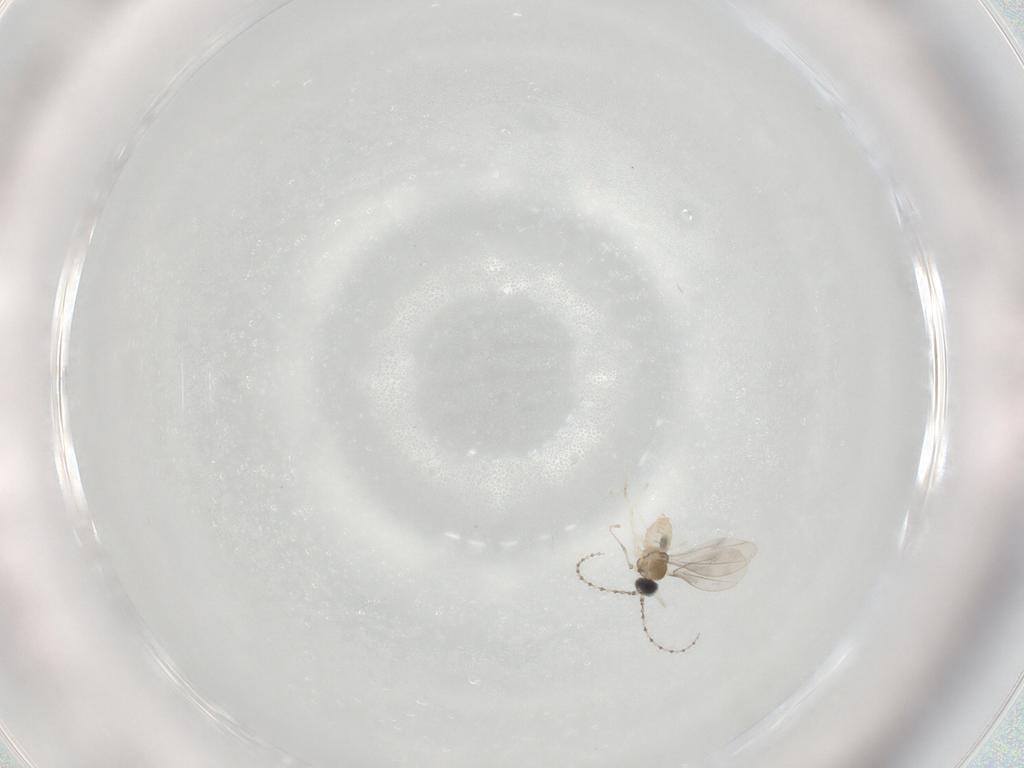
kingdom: Animalia
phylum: Arthropoda
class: Insecta
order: Diptera
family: Cecidomyiidae
